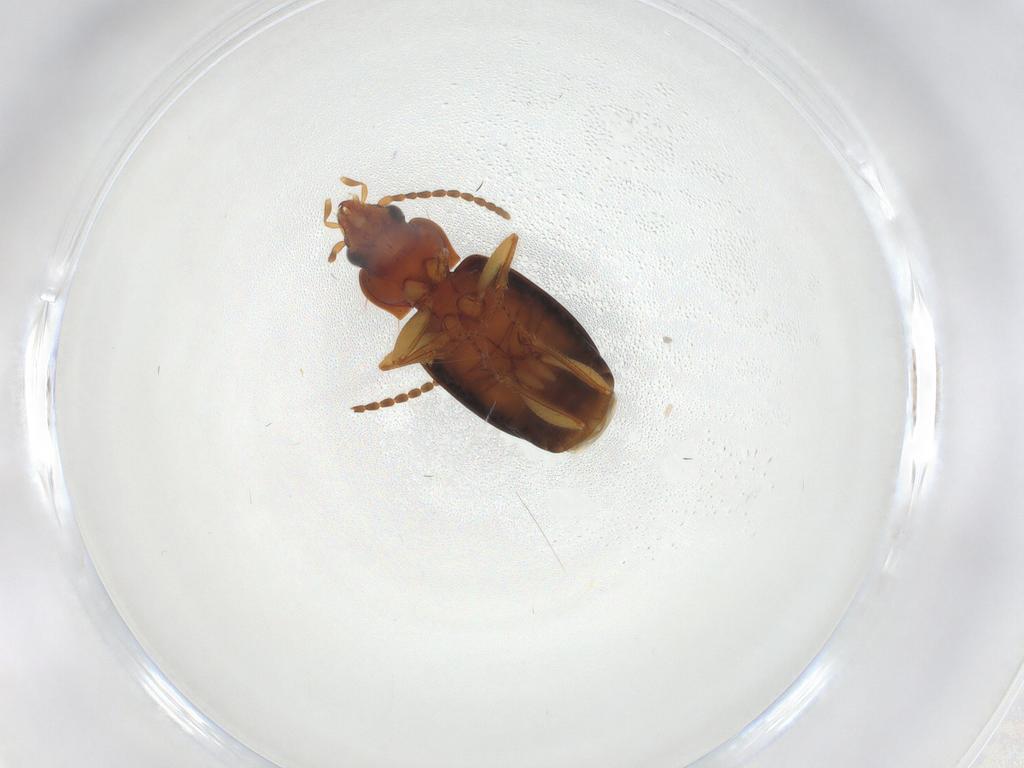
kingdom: Animalia
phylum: Arthropoda
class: Insecta
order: Coleoptera
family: Carabidae
